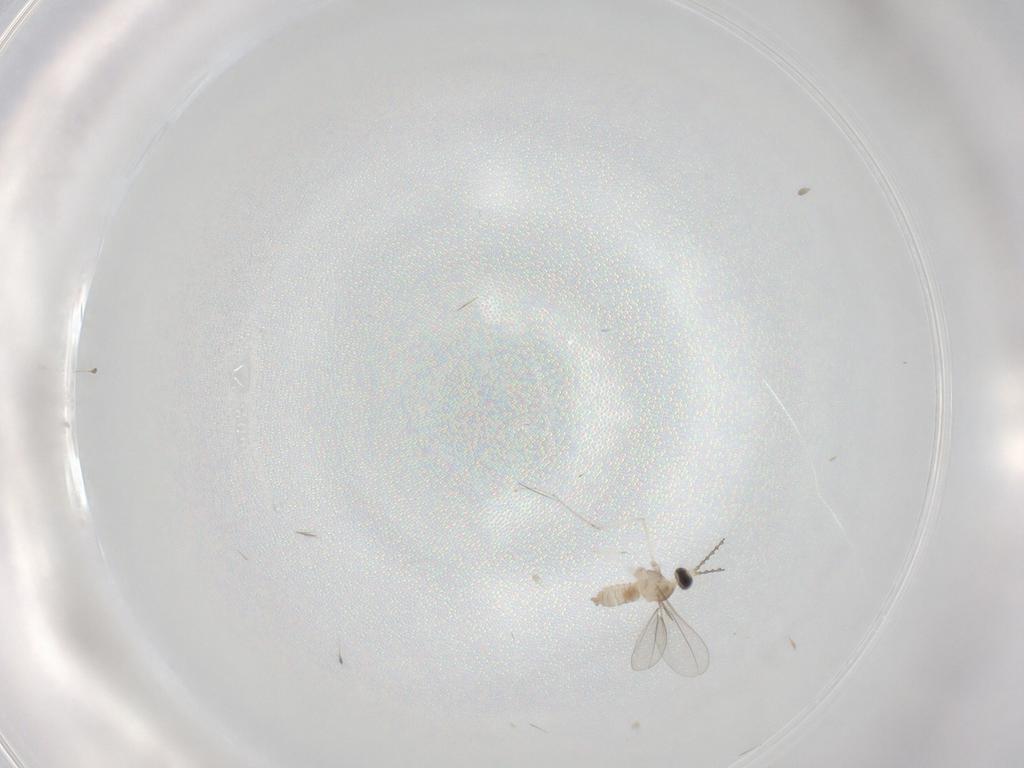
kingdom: Animalia
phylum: Arthropoda
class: Insecta
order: Diptera
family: Cecidomyiidae
